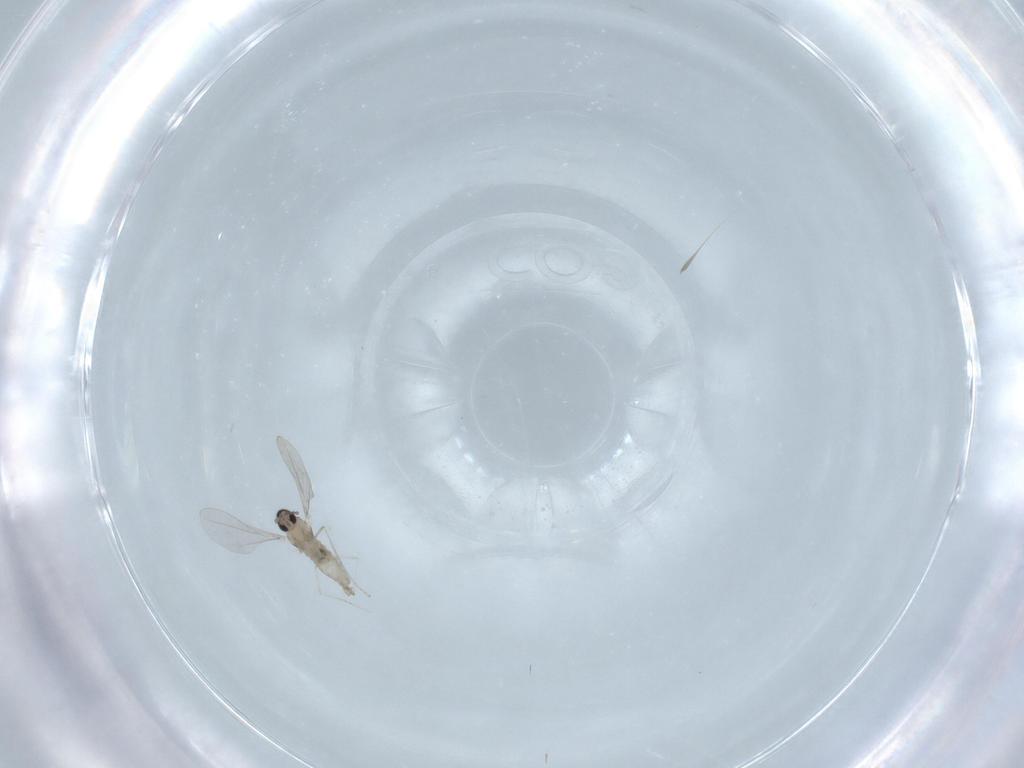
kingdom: Animalia
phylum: Arthropoda
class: Insecta
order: Diptera
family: Cecidomyiidae
